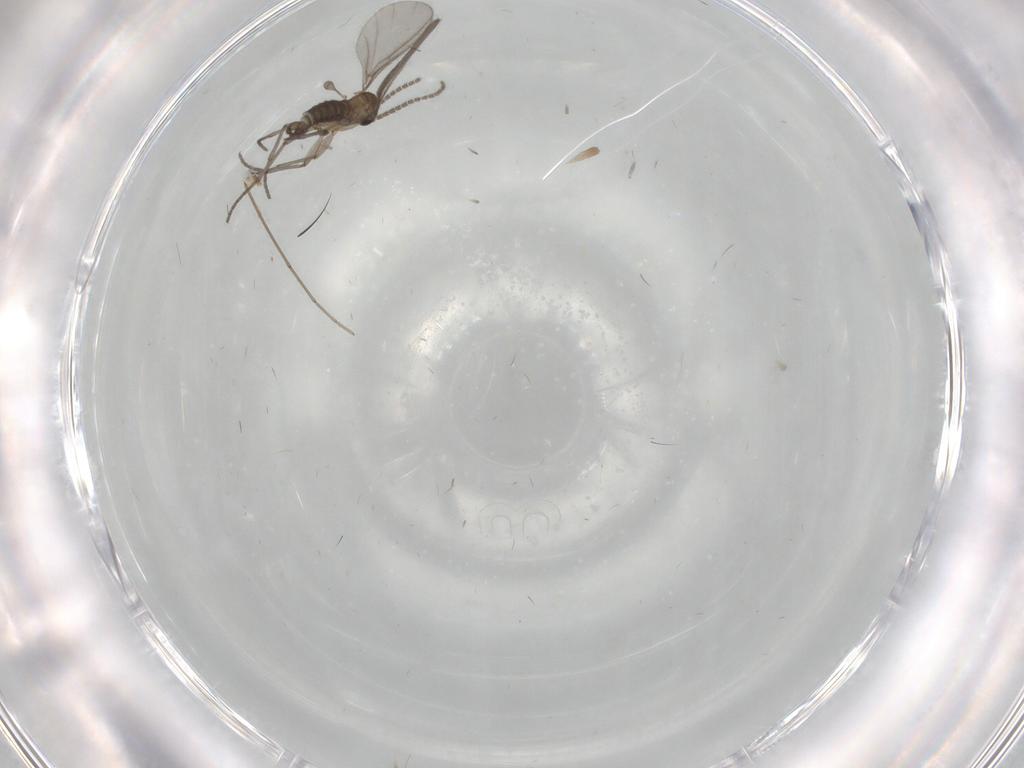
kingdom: Animalia
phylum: Arthropoda
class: Insecta
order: Diptera
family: Sciaridae
